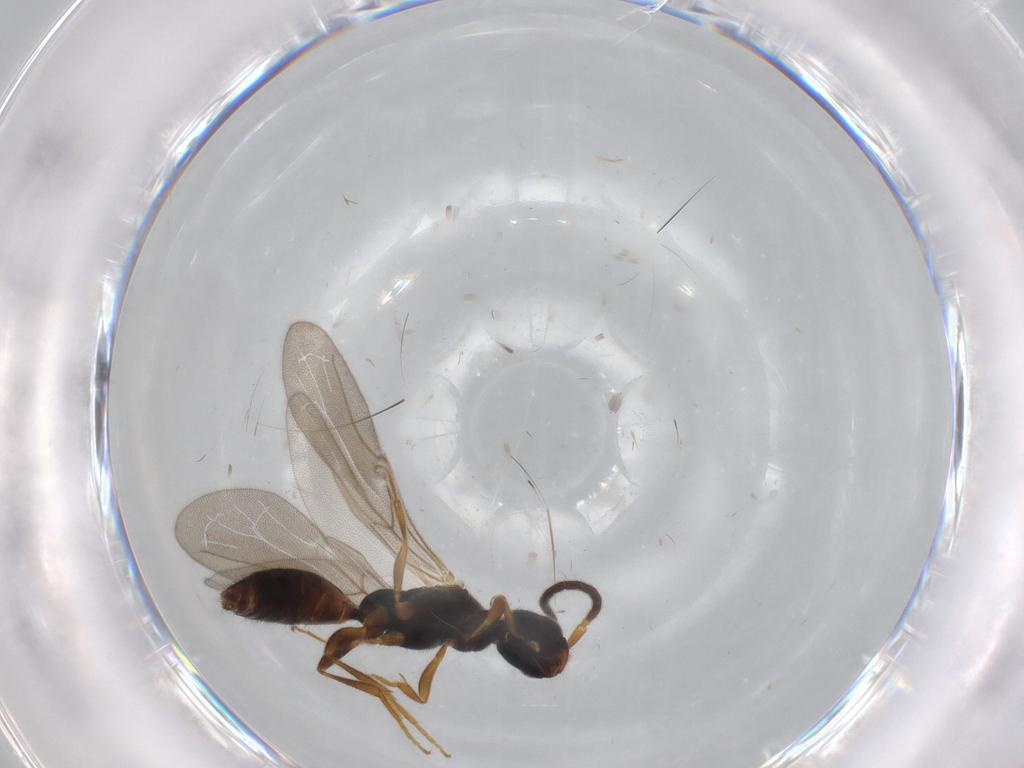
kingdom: Animalia
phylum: Arthropoda
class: Insecta
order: Hymenoptera
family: Bethylidae
